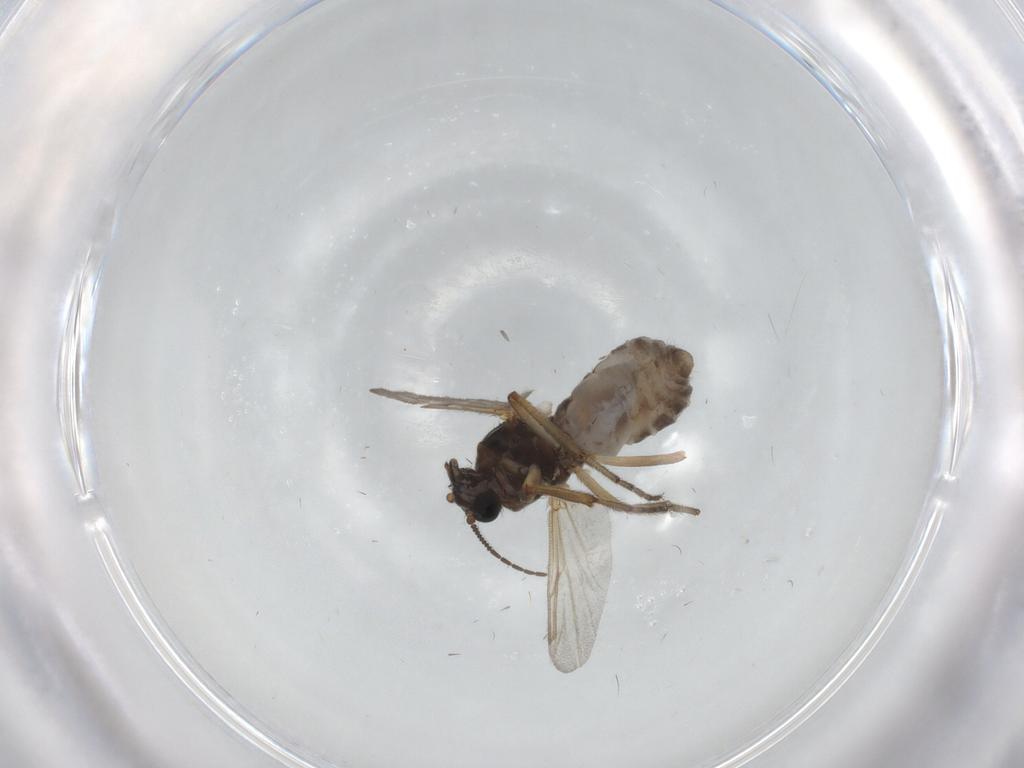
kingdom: Animalia
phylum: Arthropoda
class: Insecta
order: Diptera
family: Ceratopogonidae
